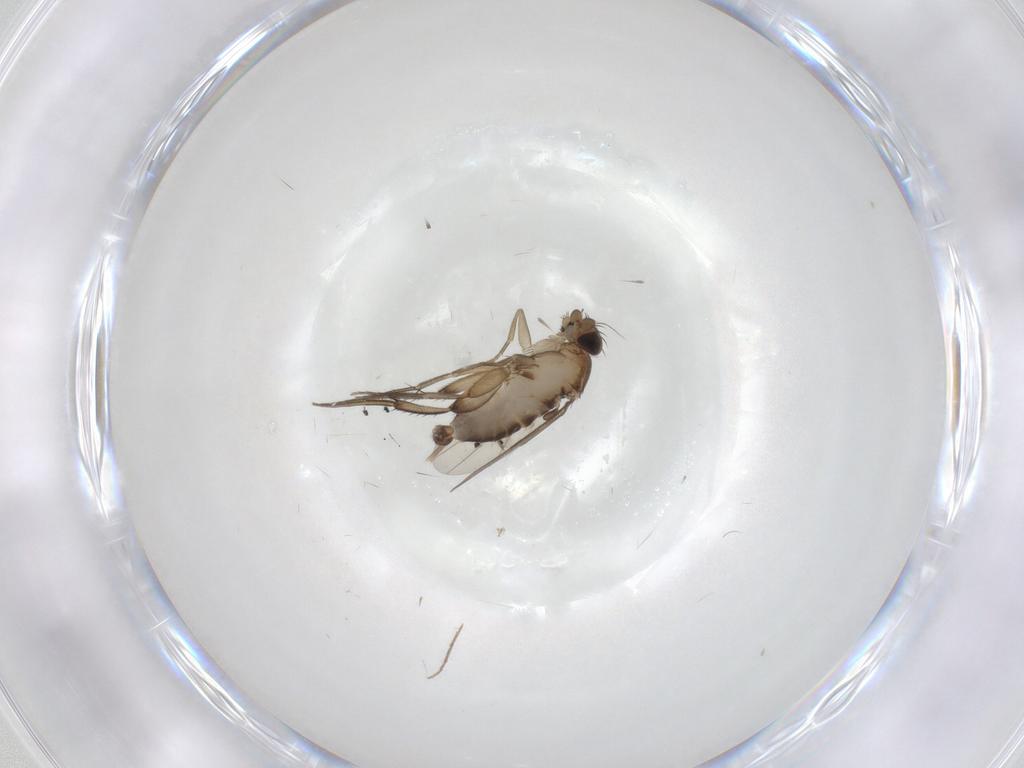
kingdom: Animalia
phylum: Arthropoda
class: Insecta
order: Diptera
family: Phoridae
